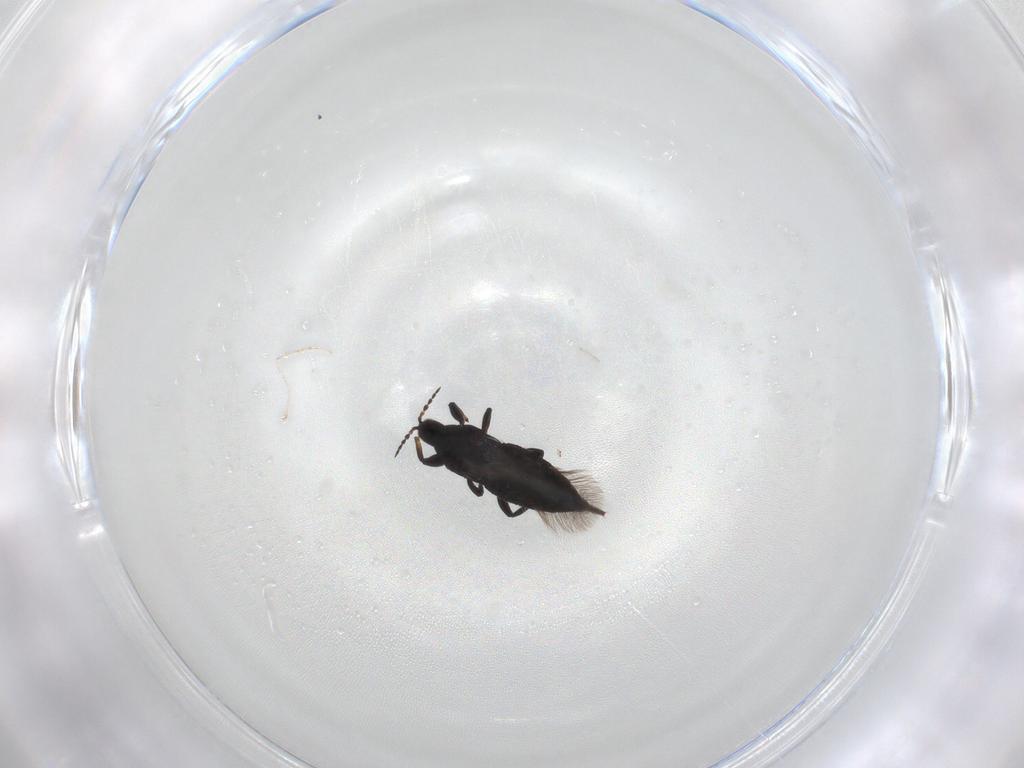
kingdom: Animalia
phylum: Arthropoda
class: Insecta
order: Thysanoptera
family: Phlaeothripidae
